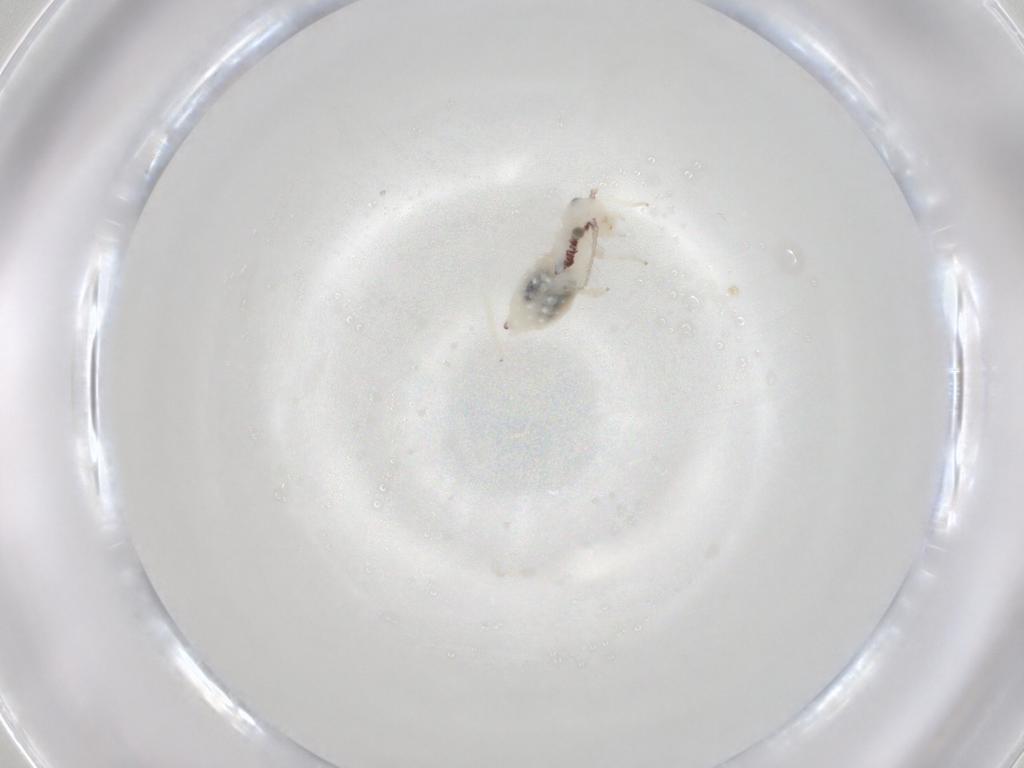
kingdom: Animalia
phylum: Arthropoda
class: Insecta
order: Psocodea
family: Philotarsidae
